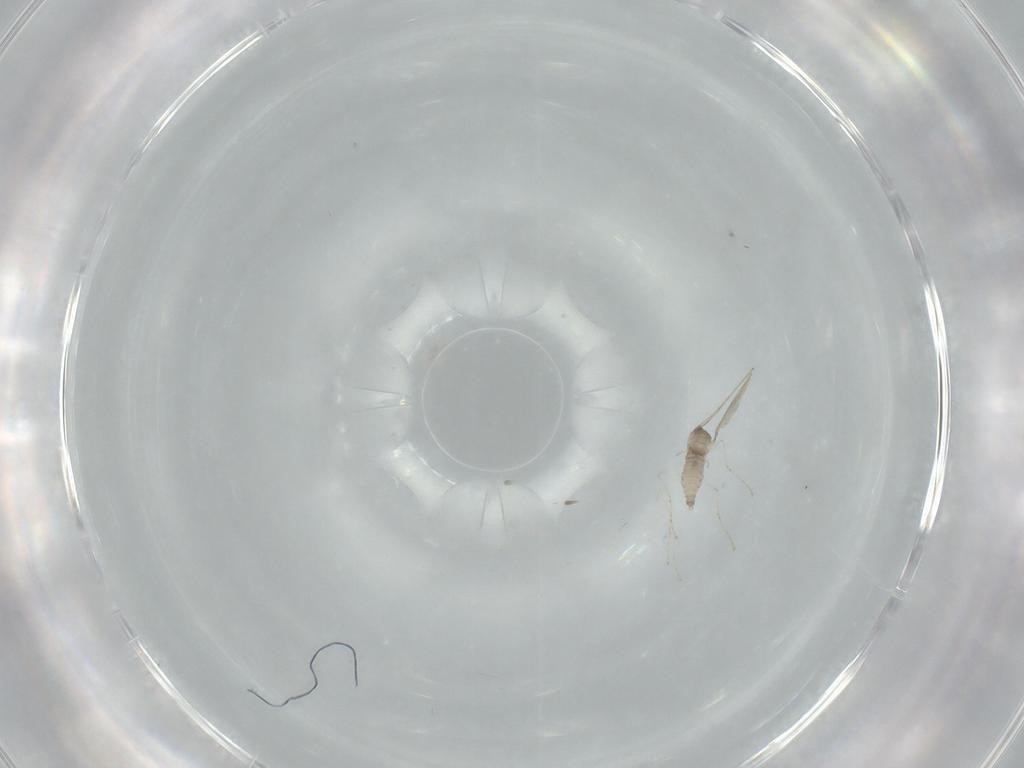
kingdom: Animalia
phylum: Arthropoda
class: Insecta
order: Diptera
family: Cecidomyiidae
